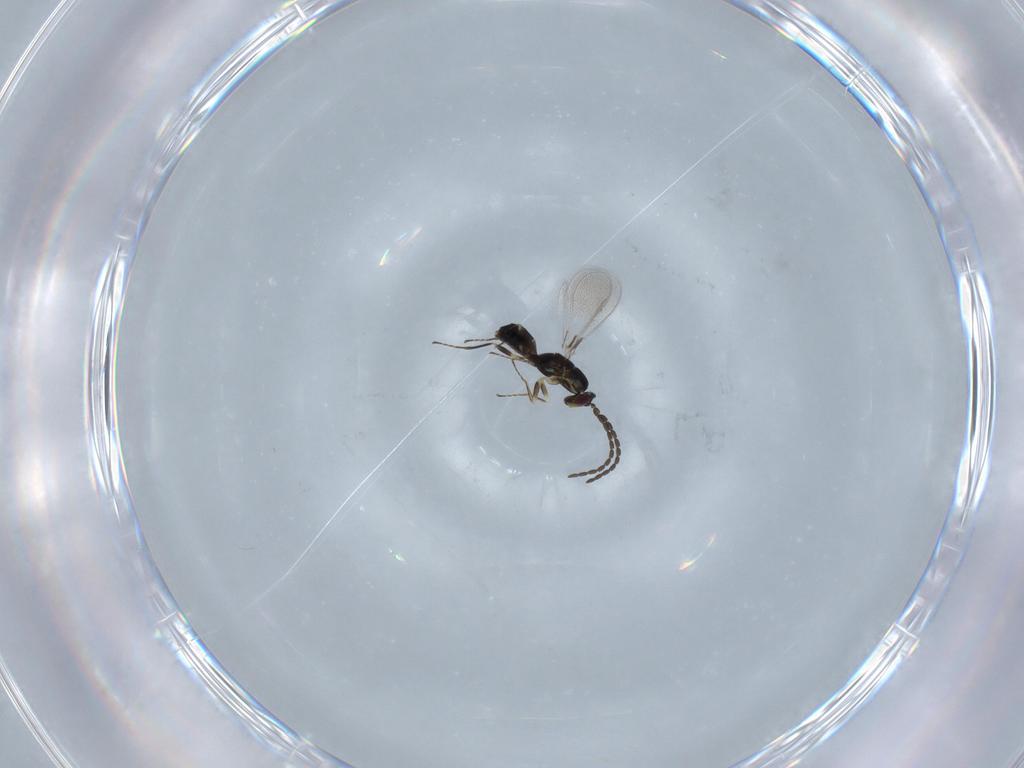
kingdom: Animalia
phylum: Arthropoda
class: Insecta
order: Hymenoptera
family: Mymaridae
